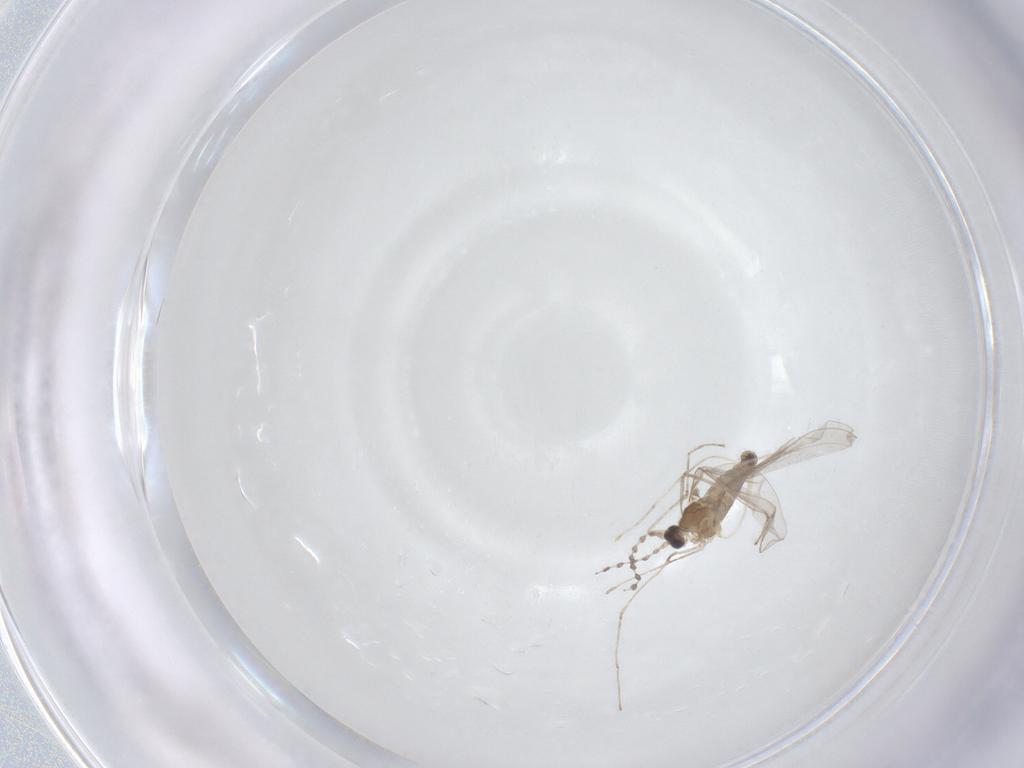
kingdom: Animalia
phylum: Arthropoda
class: Insecta
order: Diptera
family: Cecidomyiidae
